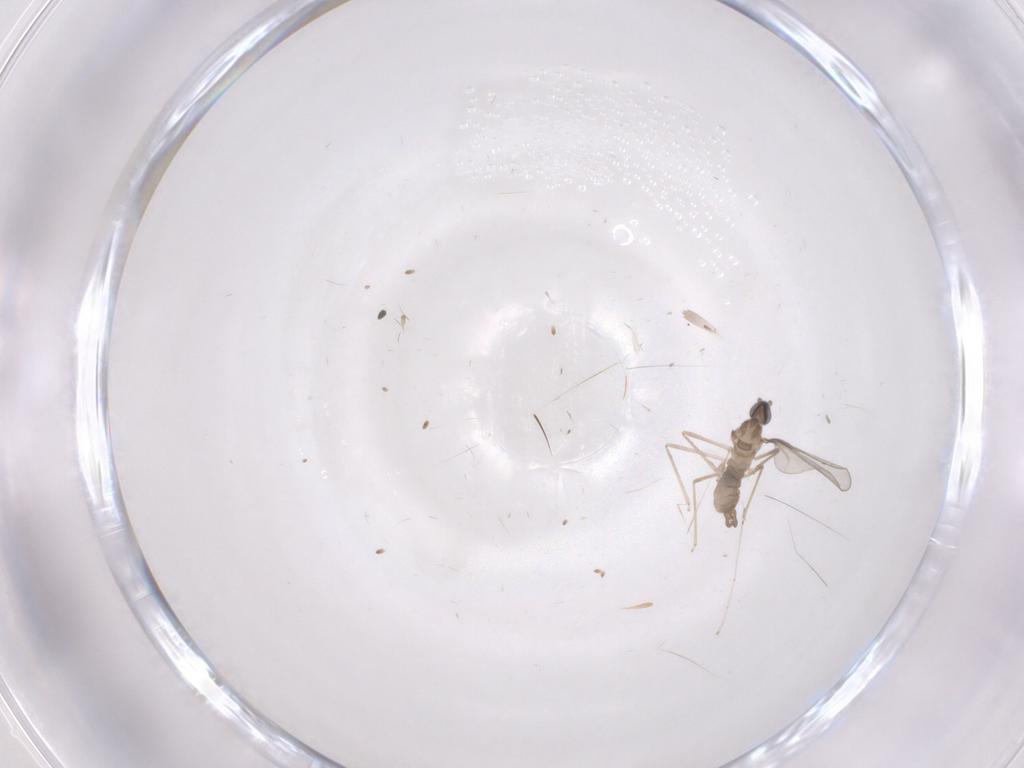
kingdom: Animalia
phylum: Arthropoda
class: Insecta
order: Diptera
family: Cecidomyiidae
